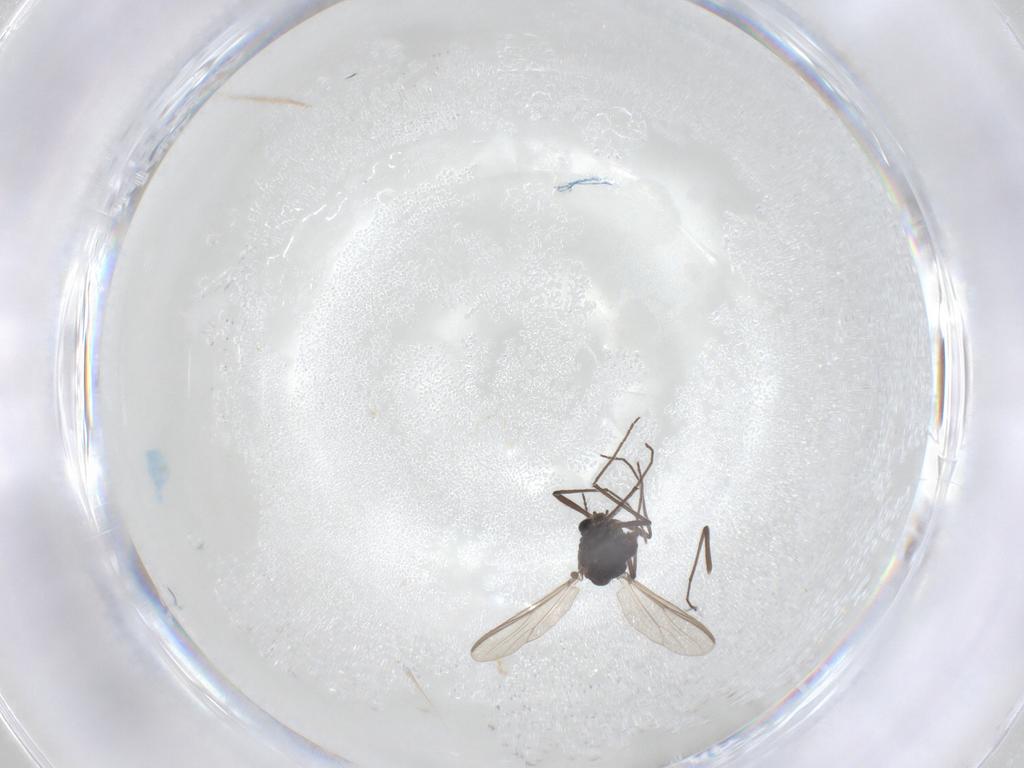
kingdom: Animalia
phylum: Arthropoda
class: Insecta
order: Diptera
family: Chironomidae
